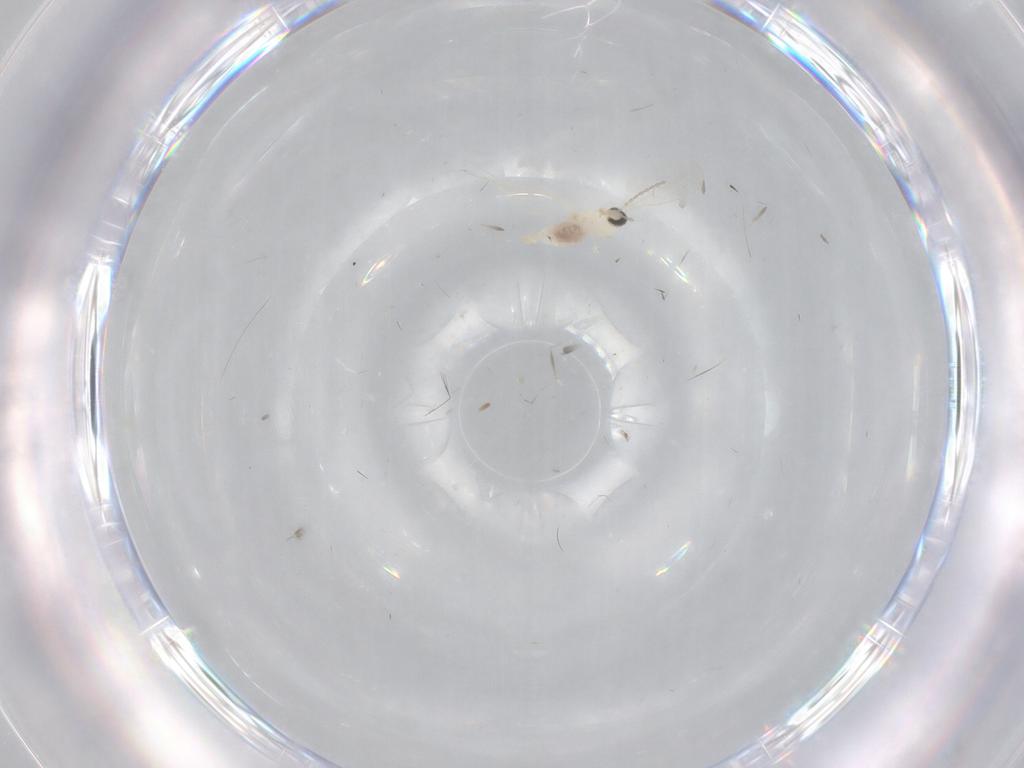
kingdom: Animalia
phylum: Arthropoda
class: Insecta
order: Diptera
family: Cecidomyiidae
